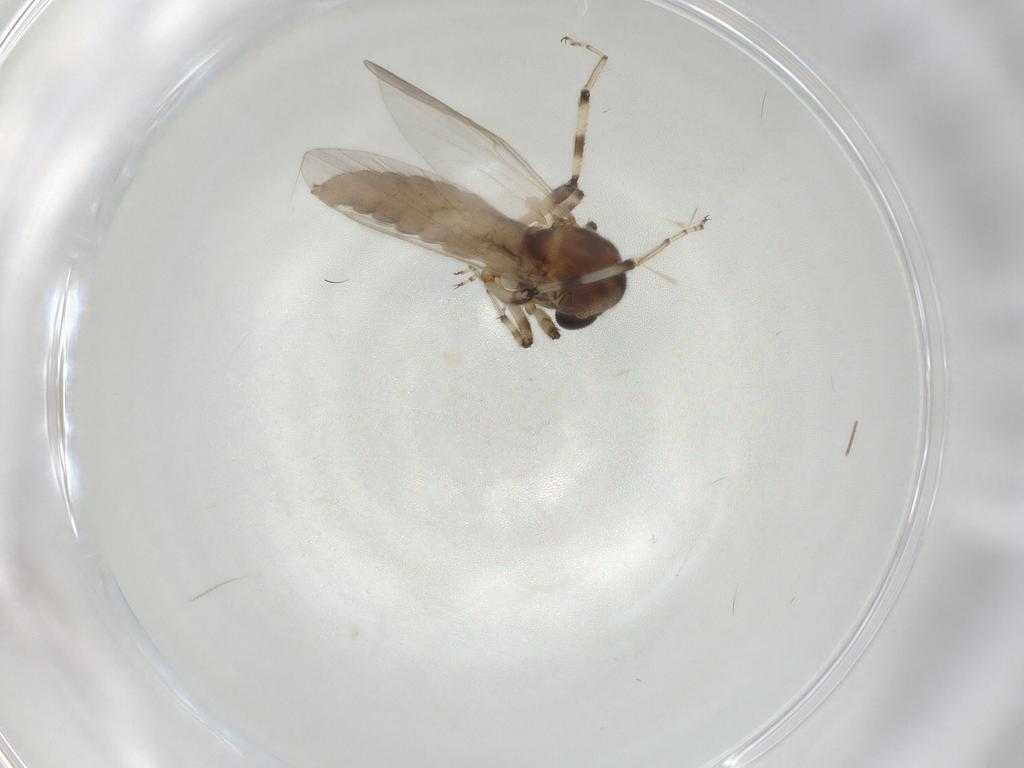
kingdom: Animalia
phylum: Arthropoda
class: Insecta
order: Diptera
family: Ceratopogonidae
